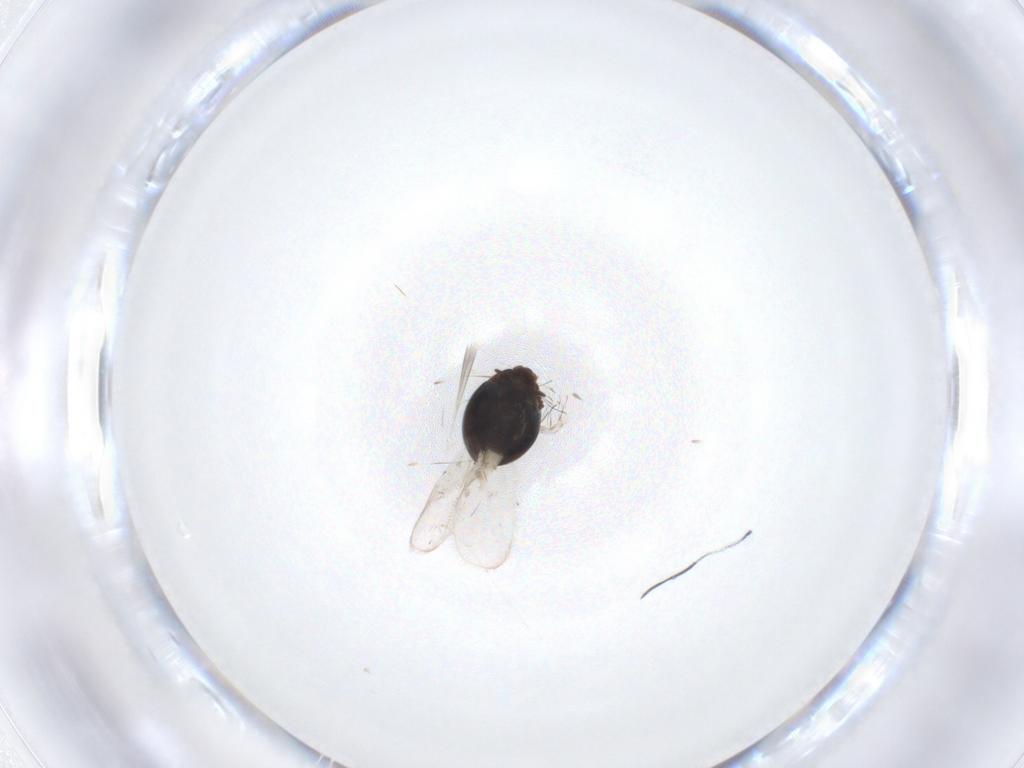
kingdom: Animalia
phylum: Arthropoda
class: Insecta
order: Coleoptera
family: Corylophidae
